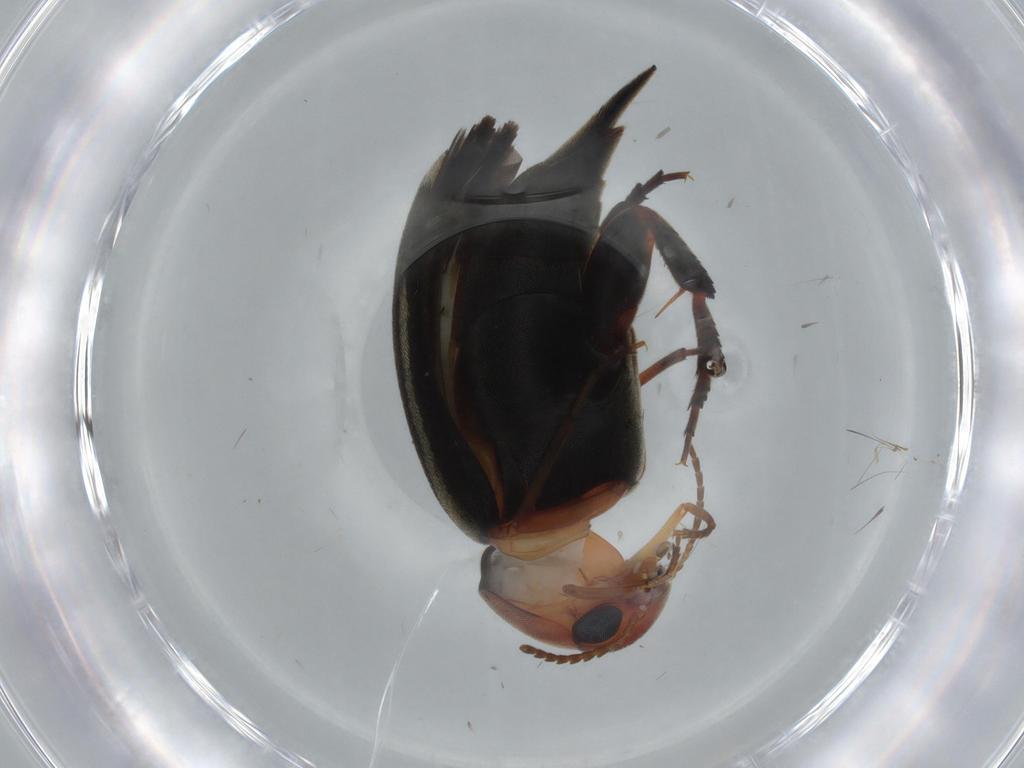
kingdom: Animalia
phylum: Arthropoda
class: Insecta
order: Coleoptera
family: Mordellidae
